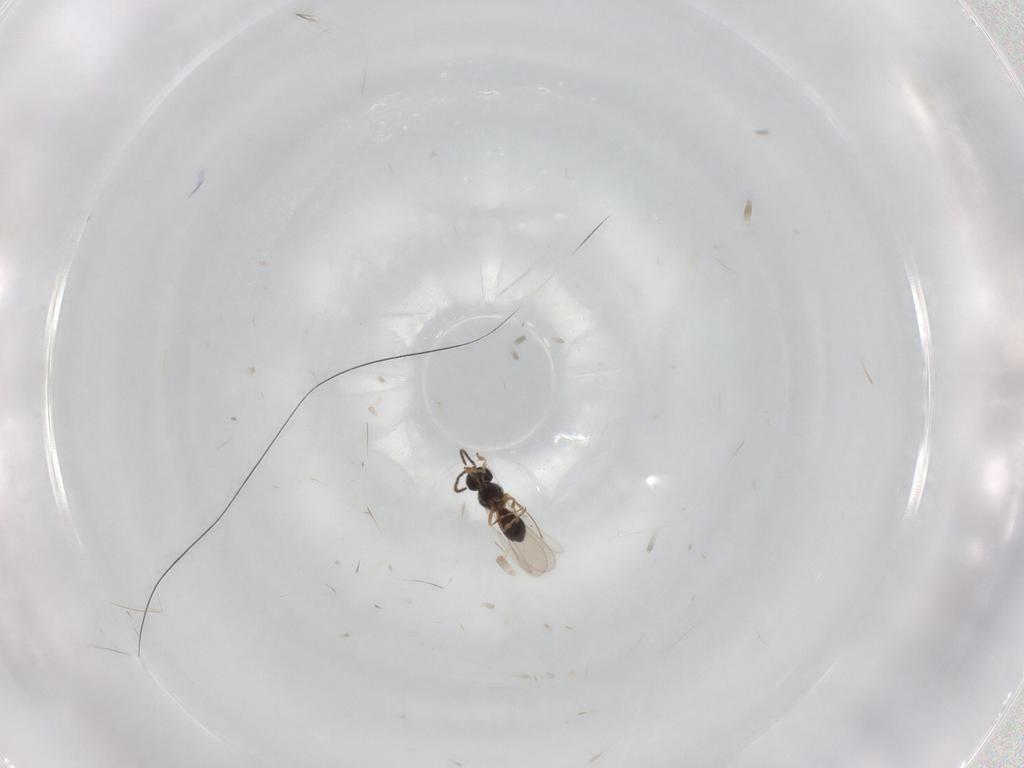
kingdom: Animalia
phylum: Arthropoda
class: Insecta
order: Hymenoptera
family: Scelionidae
